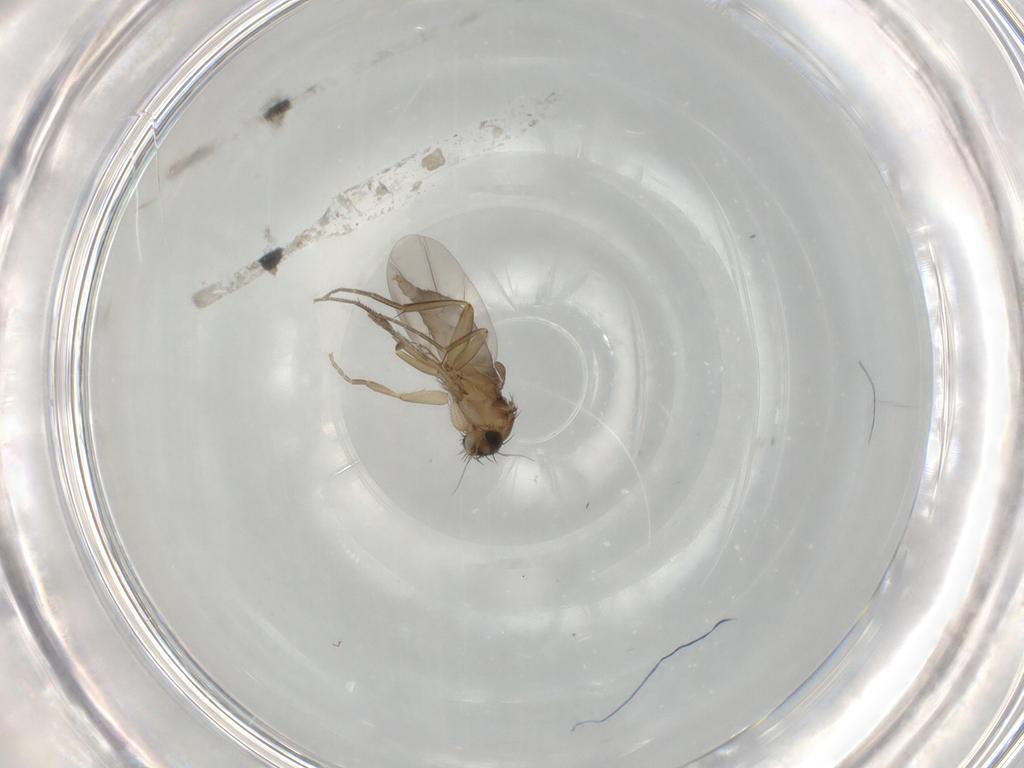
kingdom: Animalia
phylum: Arthropoda
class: Insecta
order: Diptera
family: Phoridae
